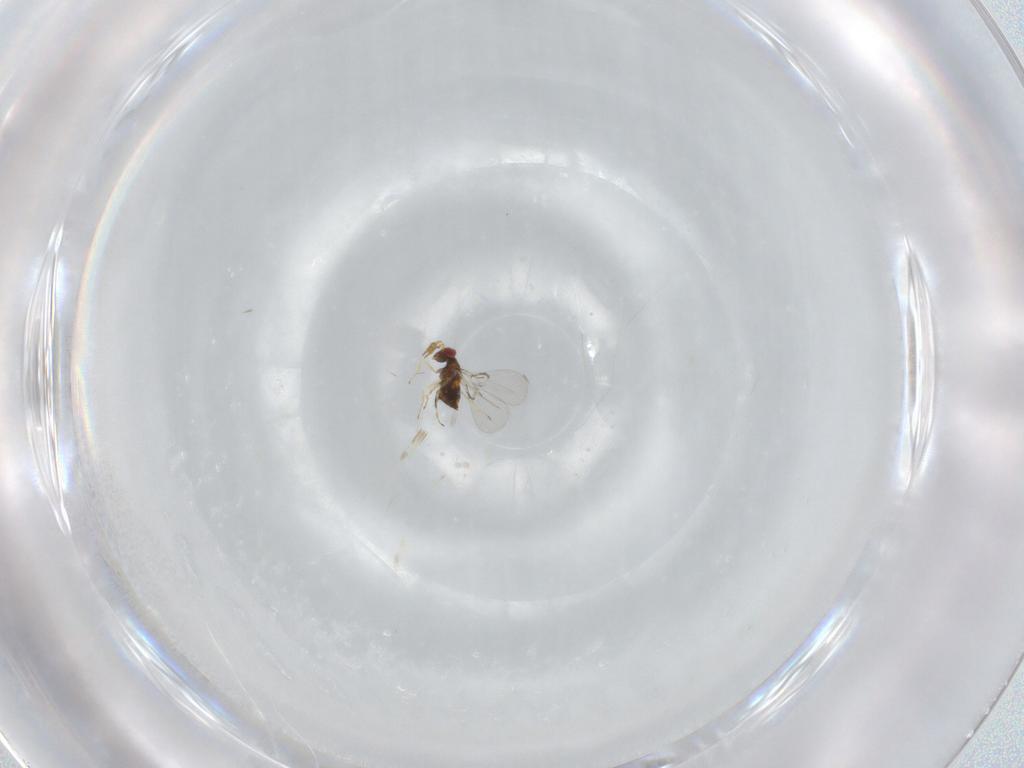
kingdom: Animalia
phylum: Arthropoda
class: Insecta
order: Hymenoptera
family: Trichogrammatidae
